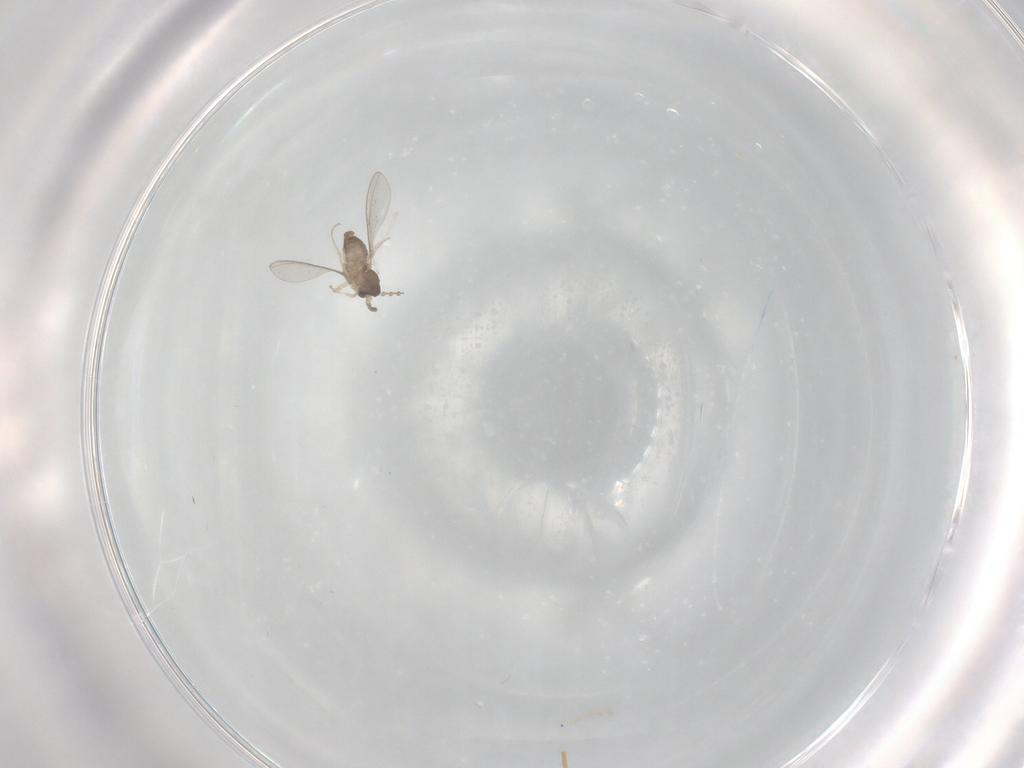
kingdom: Animalia
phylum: Arthropoda
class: Insecta
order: Diptera
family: Cecidomyiidae
